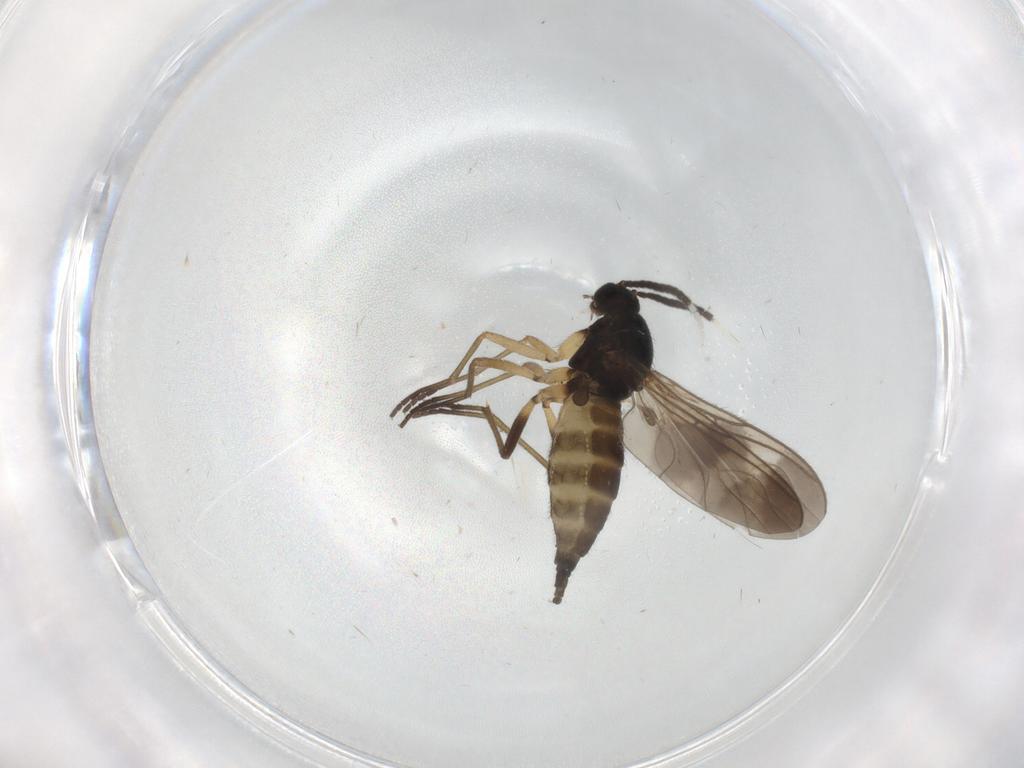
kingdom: Animalia
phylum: Arthropoda
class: Insecta
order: Diptera
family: Sciaridae
